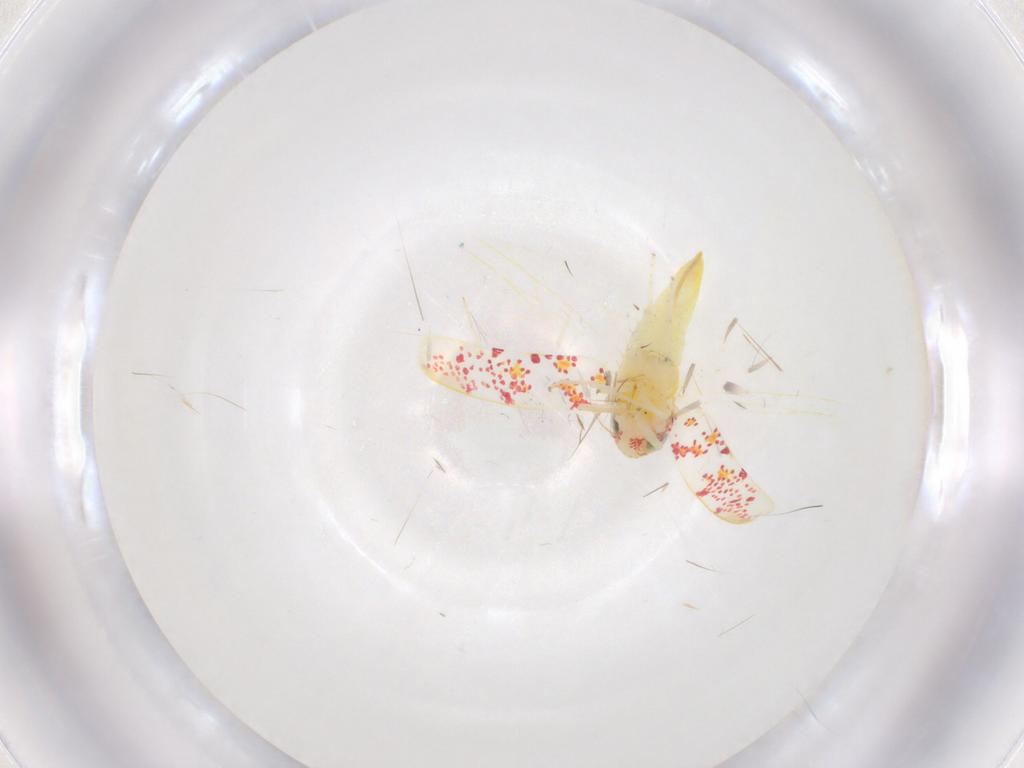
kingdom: Animalia
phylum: Arthropoda
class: Insecta
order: Hemiptera
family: Cicadellidae
